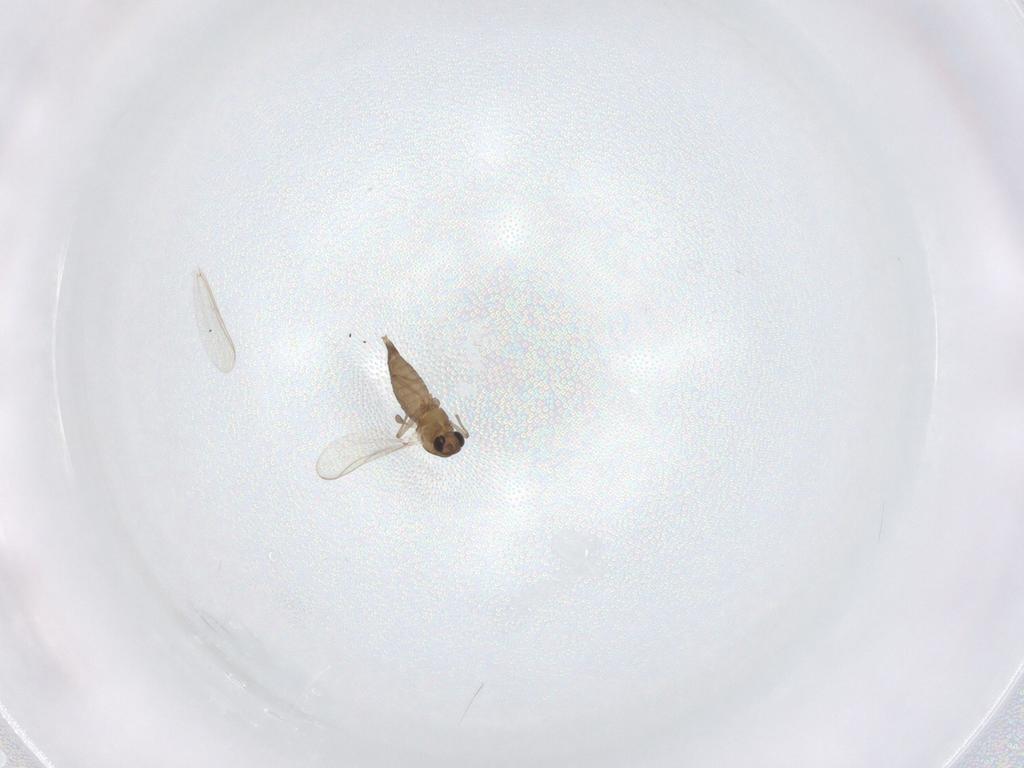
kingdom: Animalia
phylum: Arthropoda
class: Insecta
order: Diptera
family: Chironomidae
